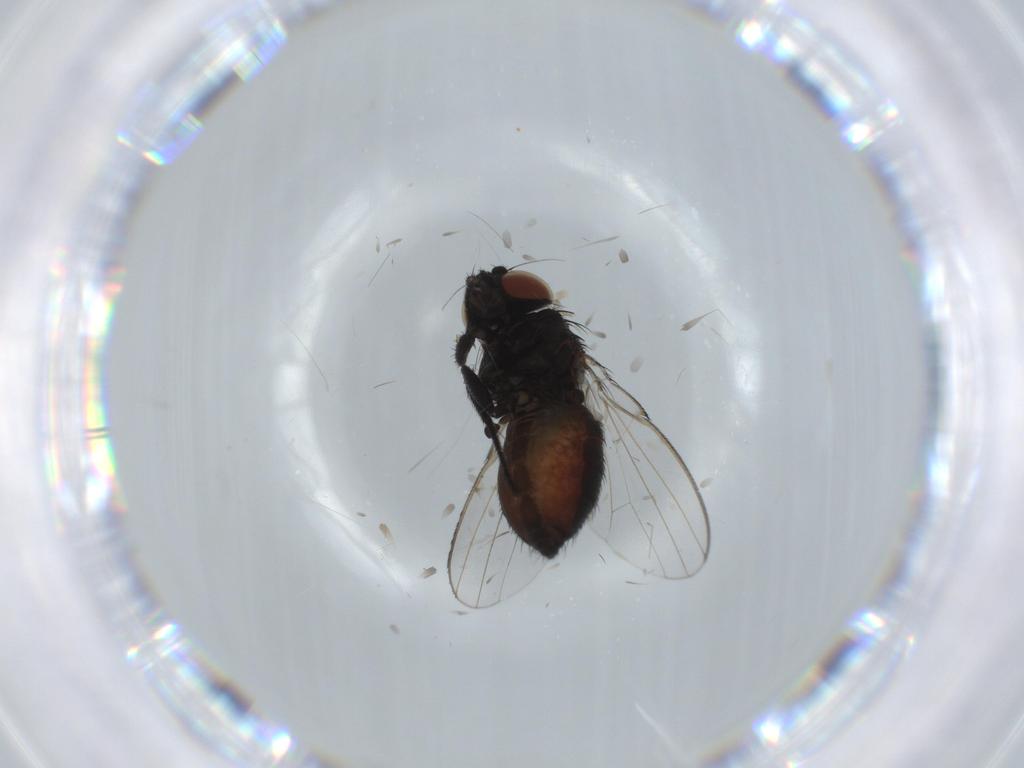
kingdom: Animalia
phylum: Arthropoda
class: Insecta
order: Diptera
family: Milichiidae
